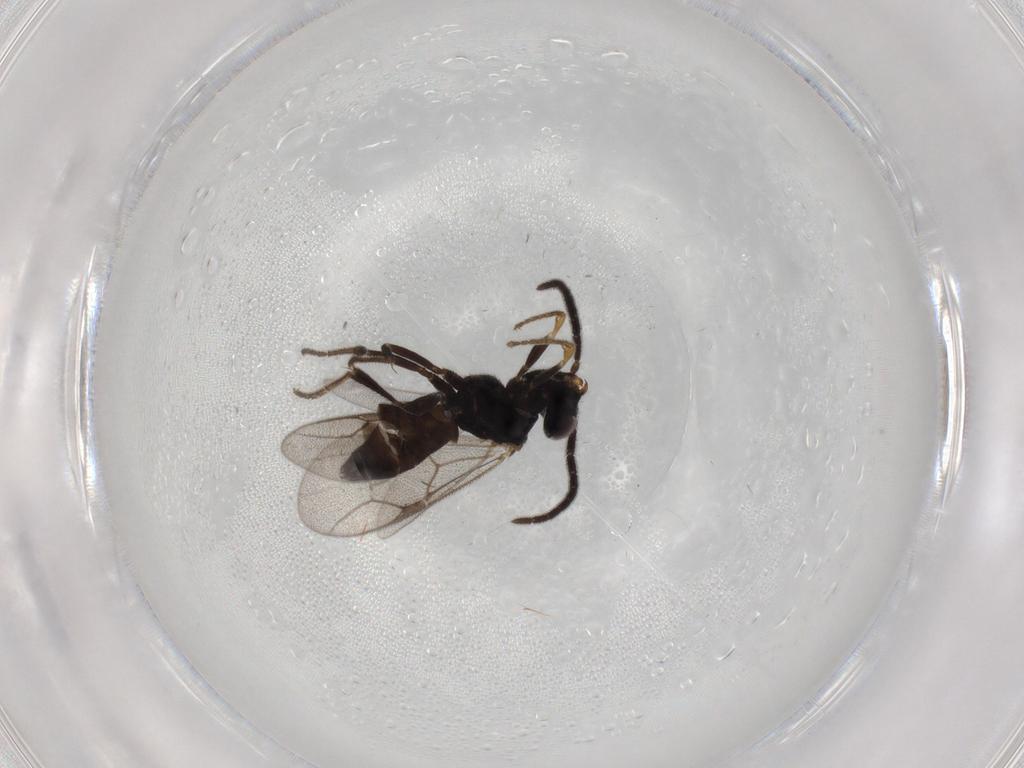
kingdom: Animalia
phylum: Arthropoda
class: Insecta
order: Hymenoptera
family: Dryinidae
